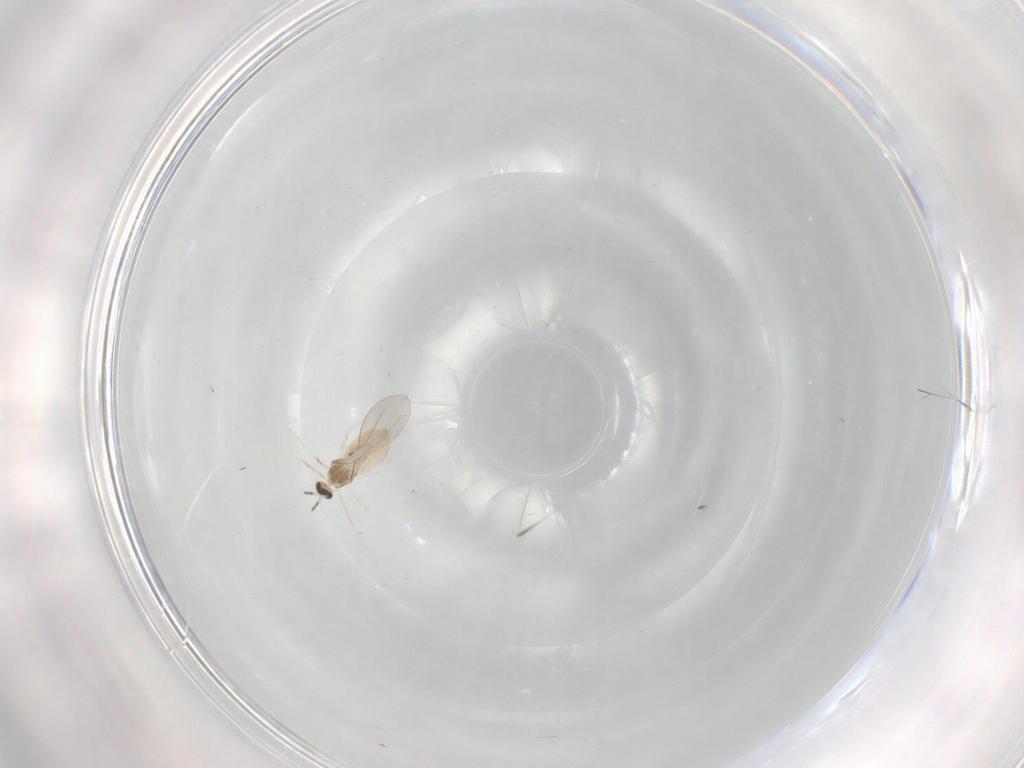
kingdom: Animalia
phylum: Arthropoda
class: Insecta
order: Diptera
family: Cecidomyiidae
